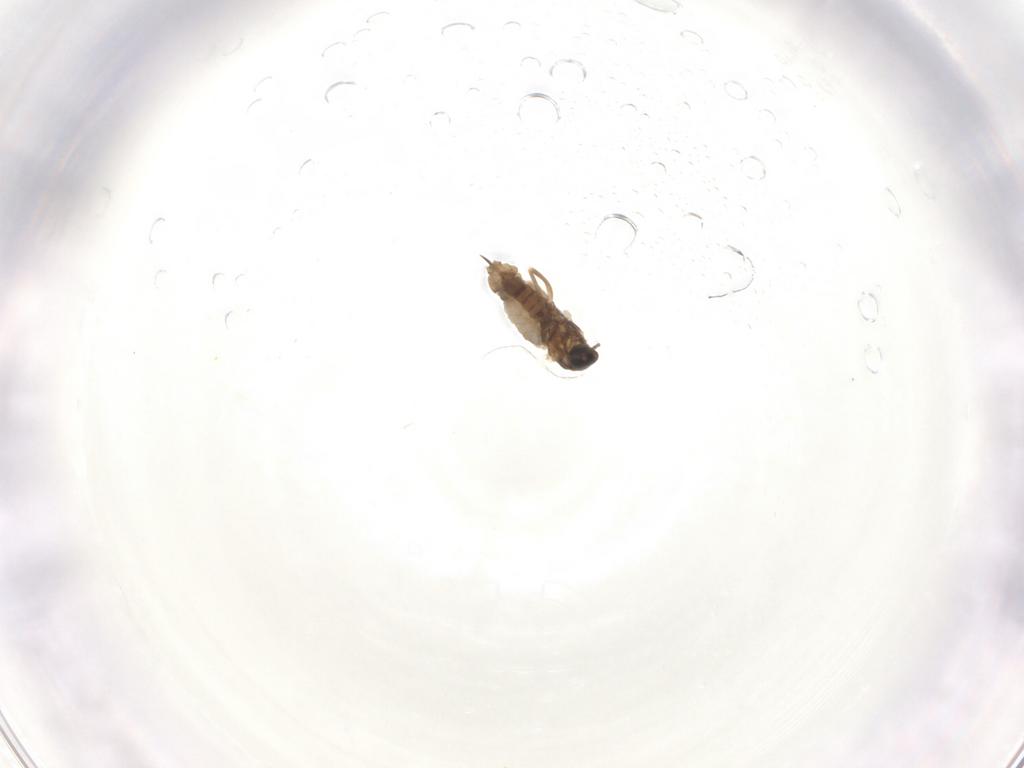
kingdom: Animalia
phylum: Arthropoda
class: Insecta
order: Diptera
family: Cecidomyiidae
